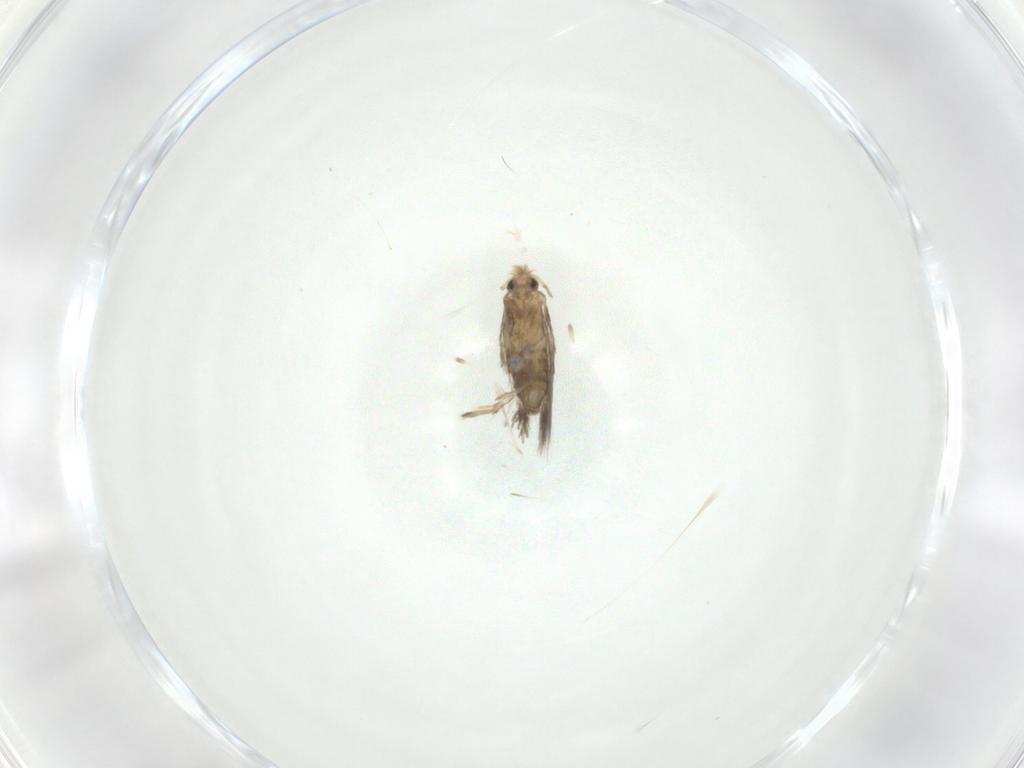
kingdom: Animalia
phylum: Arthropoda
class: Insecta
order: Lepidoptera
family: Nepticulidae
